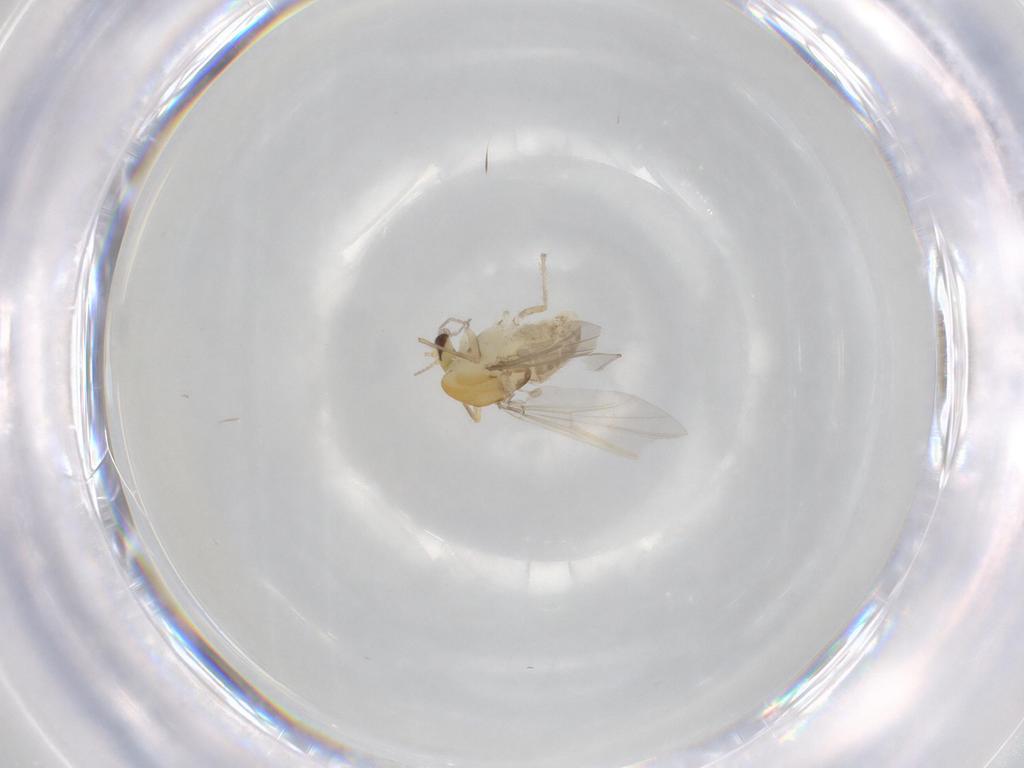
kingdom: Animalia
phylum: Arthropoda
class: Insecta
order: Diptera
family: Chironomidae
